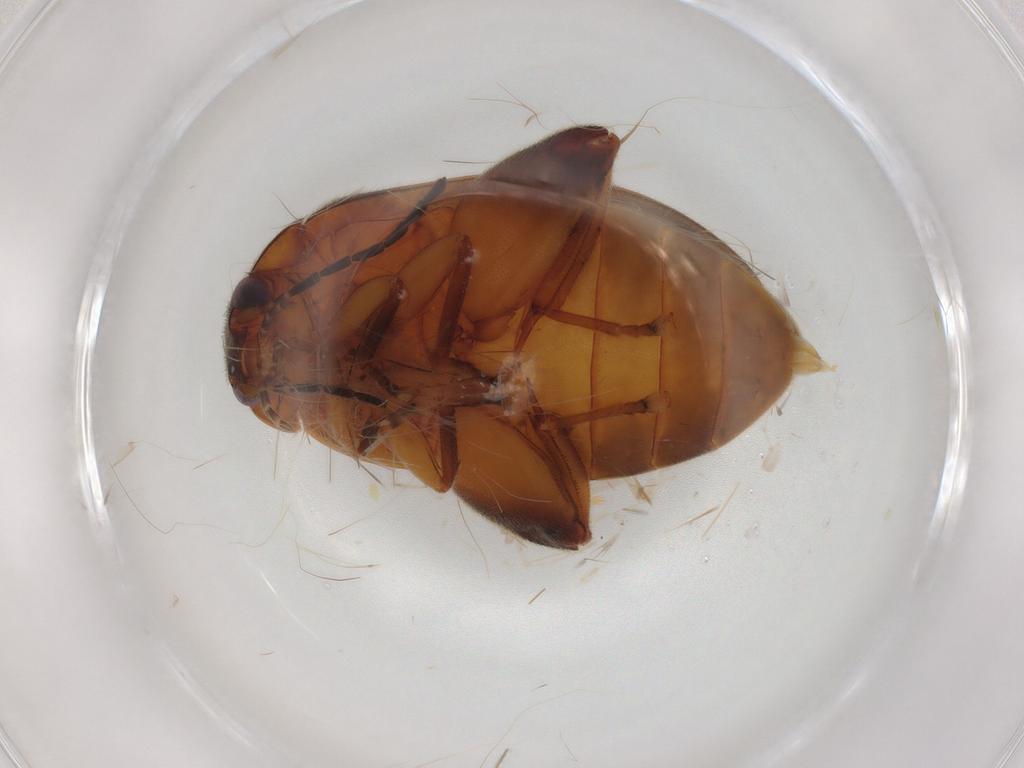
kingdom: Animalia
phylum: Arthropoda
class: Insecta
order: Coleoptera
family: Scirtidae
